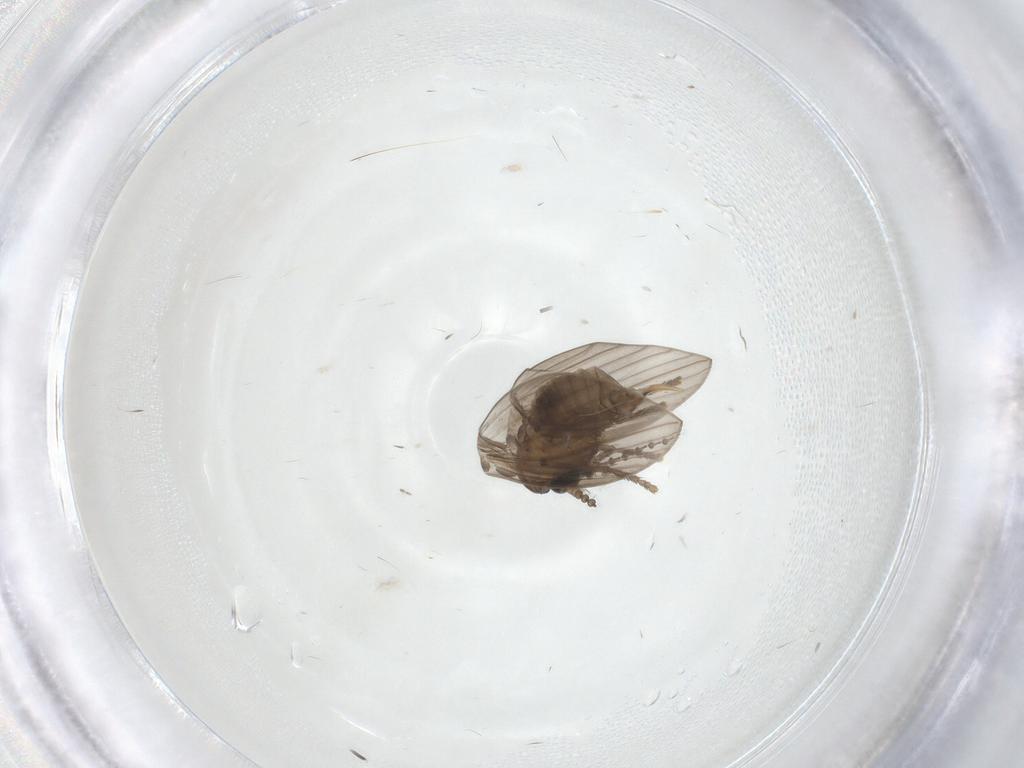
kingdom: Animalia
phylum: Arthropoda
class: Insecta
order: Diptera
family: Psychodidae
